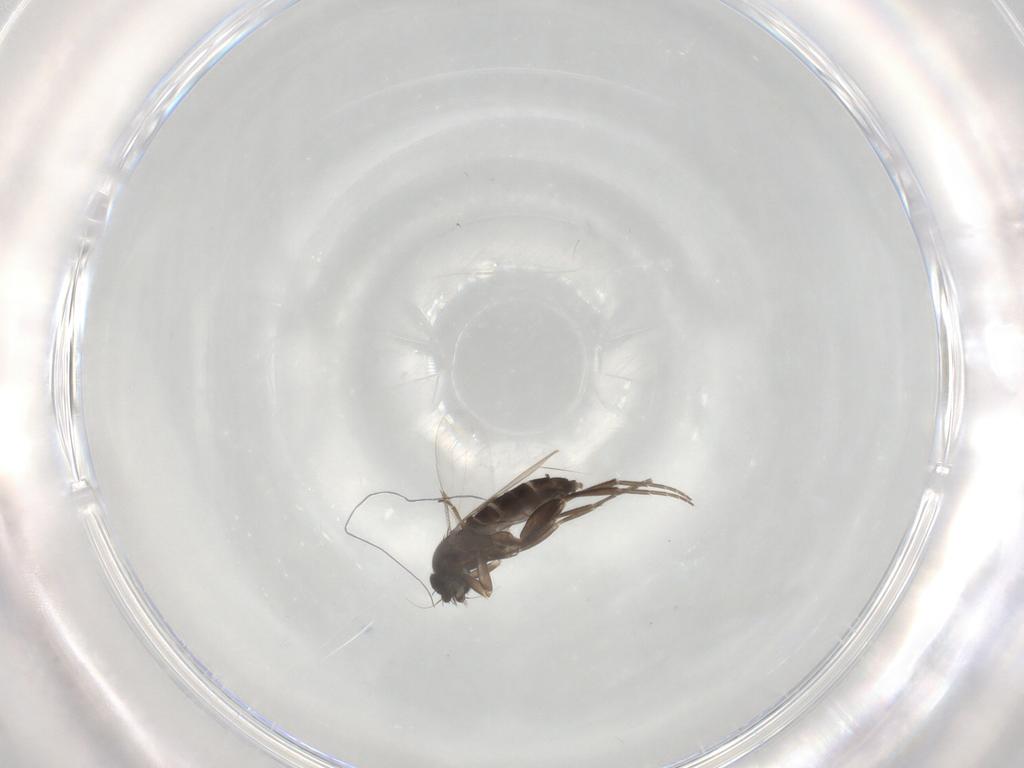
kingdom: Animalia
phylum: Arthropoda
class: Insecta
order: Diptera
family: Phoridae
